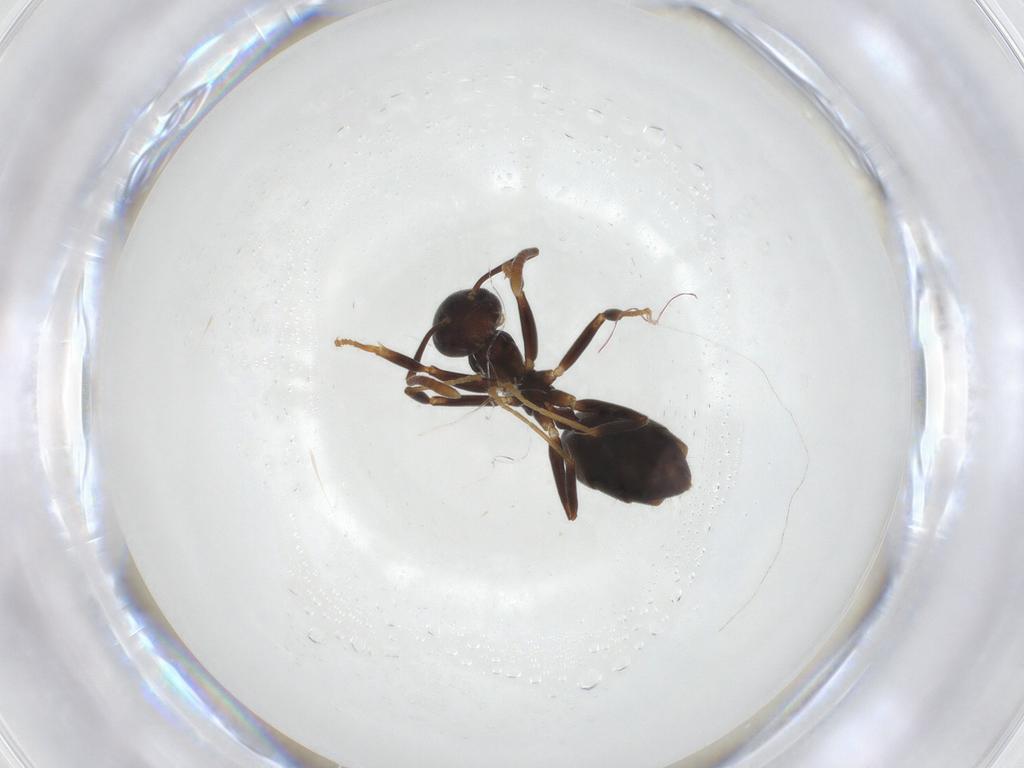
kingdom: Animalia
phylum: Arthropoda
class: Insecta
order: Hymenoptera
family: Formicidae
